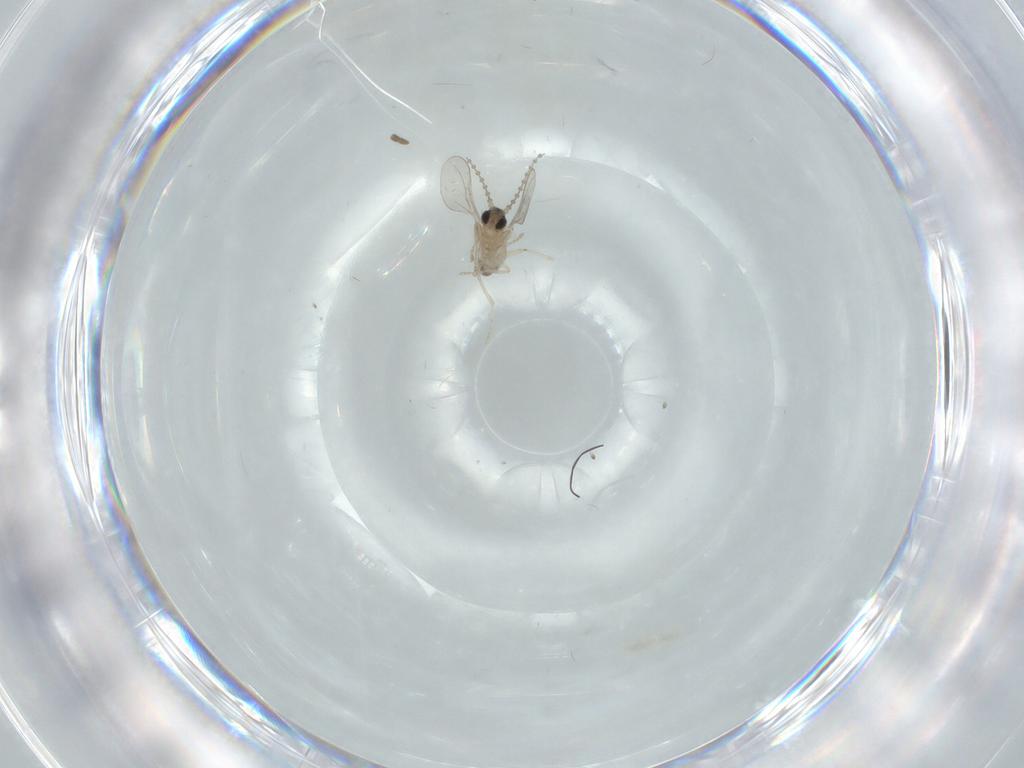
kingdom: Animalia
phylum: Arthropoda
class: Insecta
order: Diptera
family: Cecidomyiidae
